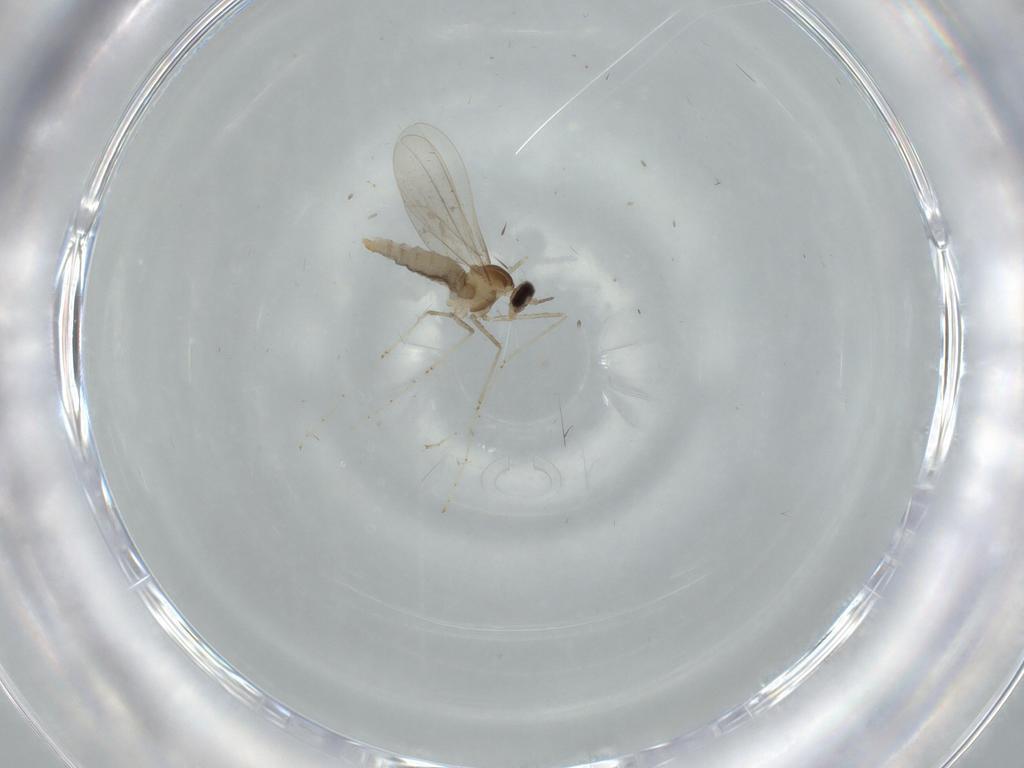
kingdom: Animalia
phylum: Arthropoda
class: Insecta
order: Diptera
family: Cecidomyiidae
